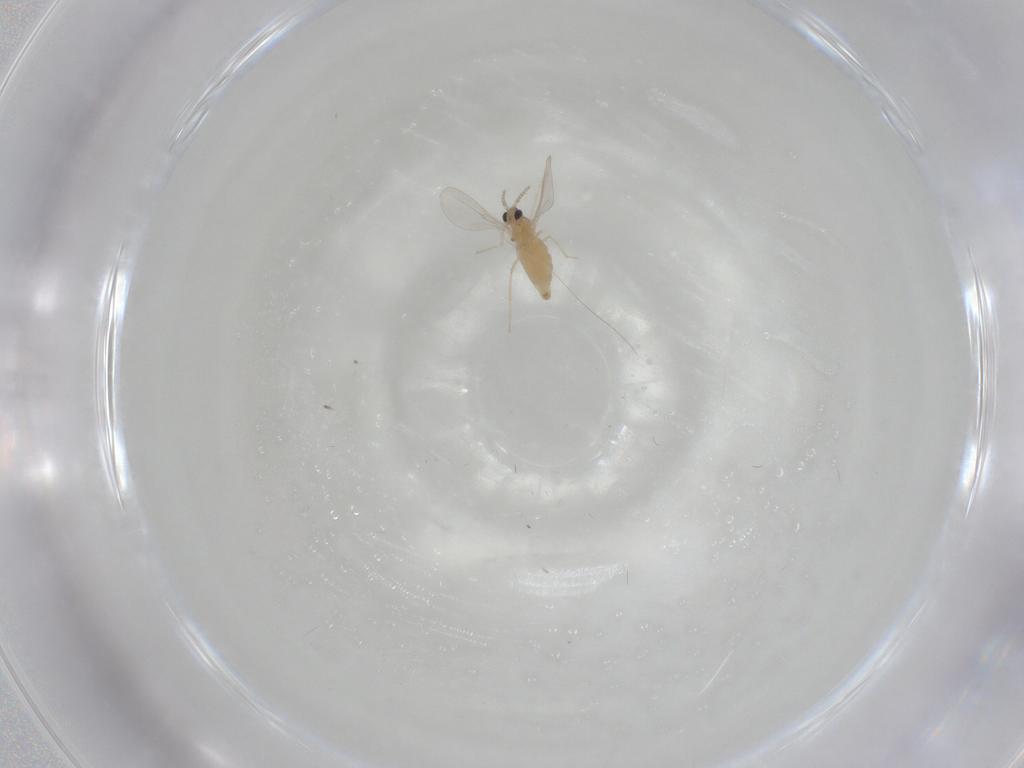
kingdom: Animalia
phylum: Arthropoda
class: Insecta
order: Diptera
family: Cecidomyiidae
